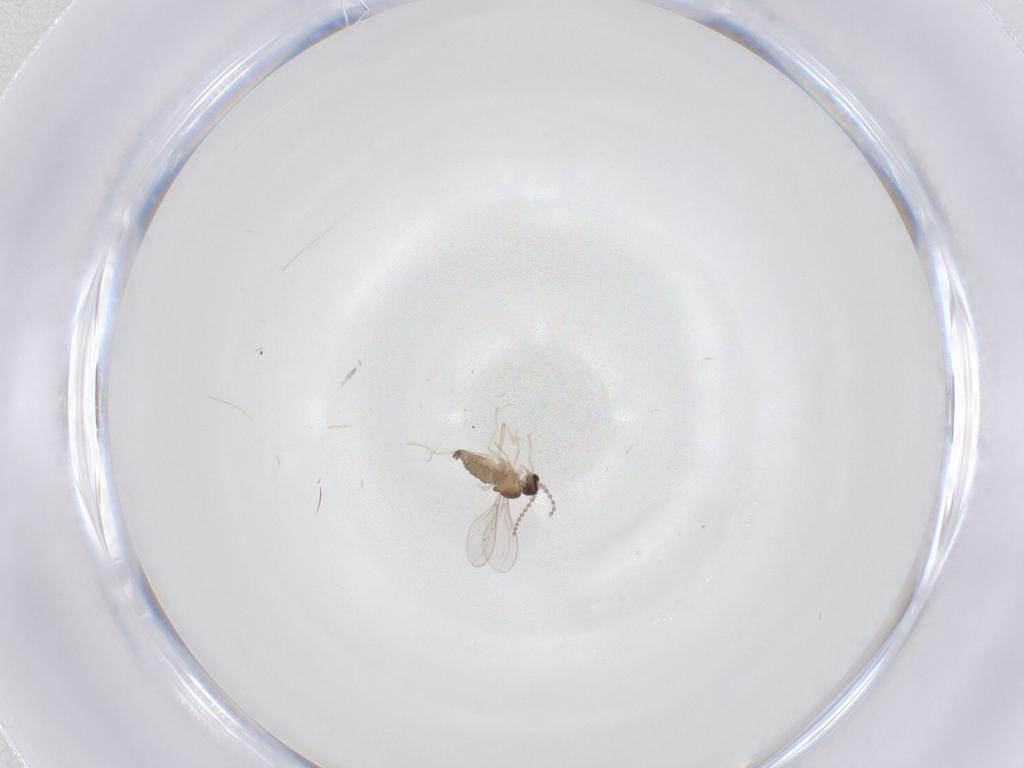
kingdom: Animalia
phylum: Arthropoda
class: Insecta
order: Diptera
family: Cecidomyiidae
